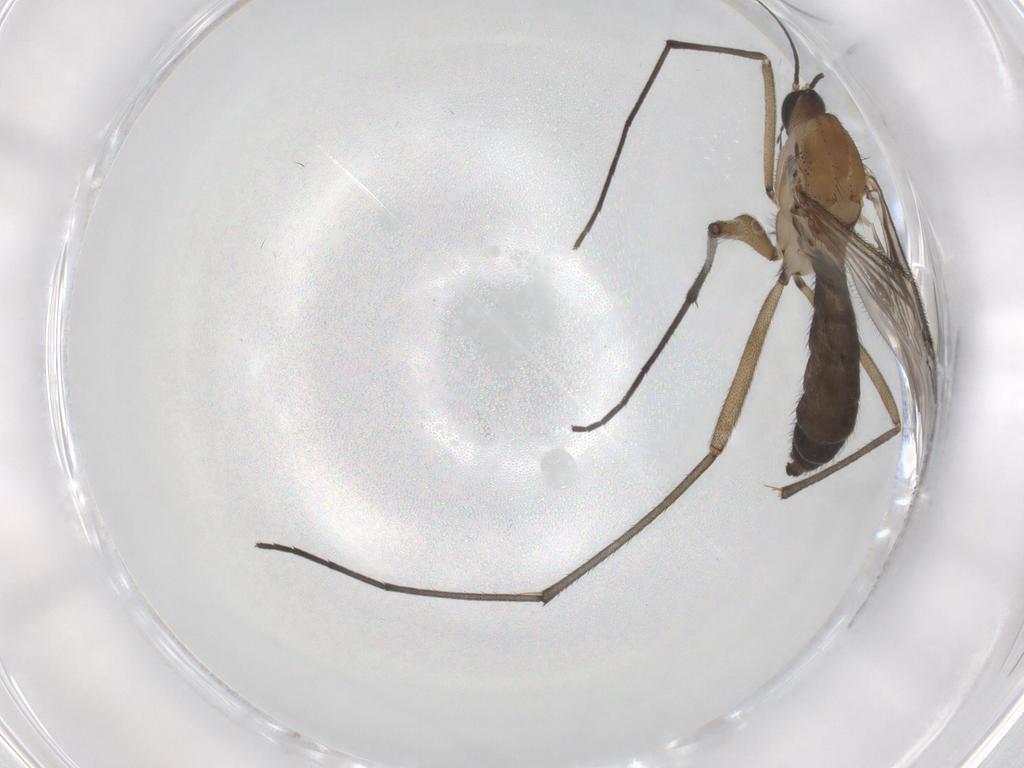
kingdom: Animalia
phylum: Arthropoda
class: Insecta
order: Diptera
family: Sciaridae
